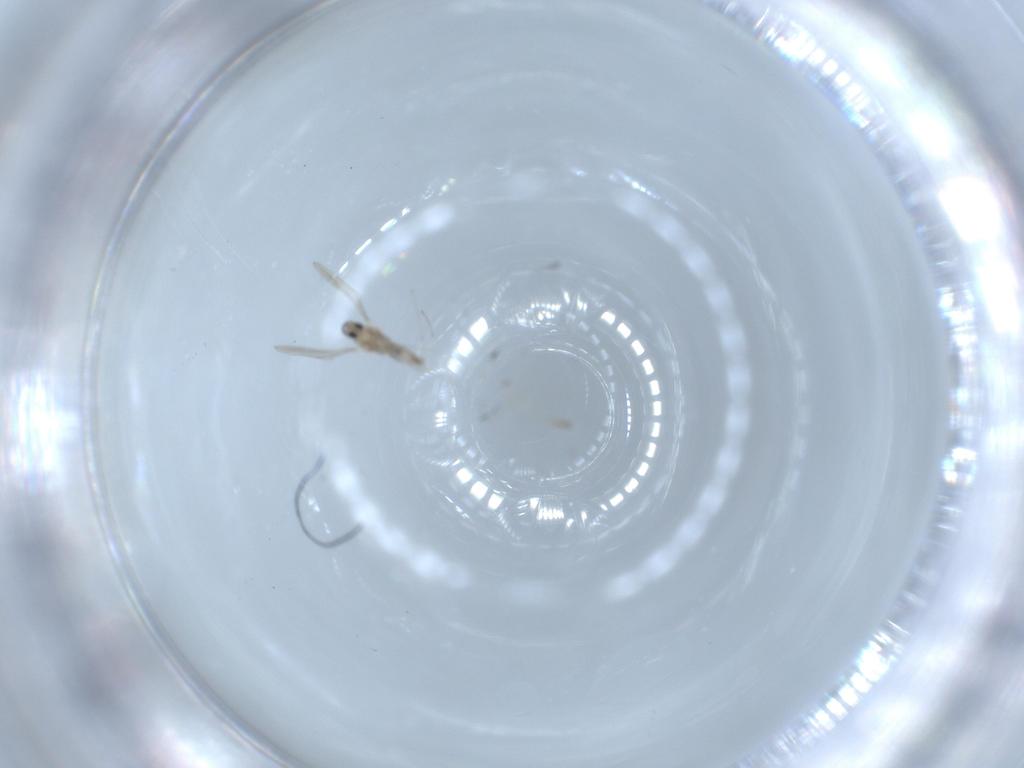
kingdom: Animalia
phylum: Arthropoda
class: Insecta
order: Diptera
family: Cecidomyiidae
